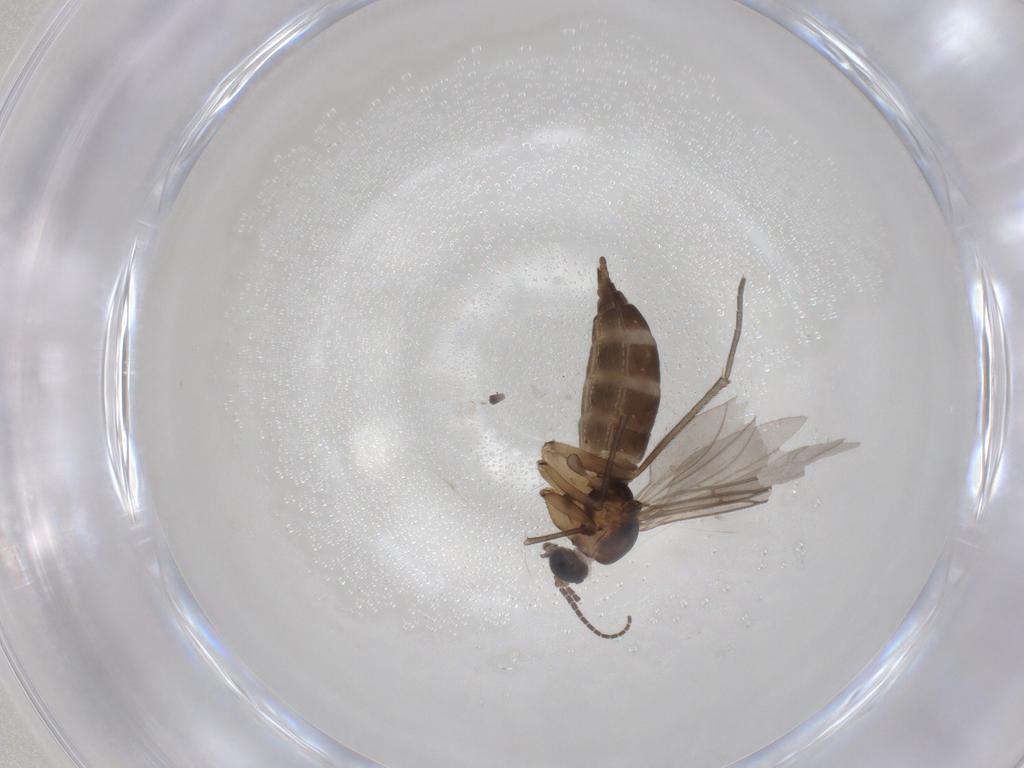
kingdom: Animalia
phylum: Arthropoda
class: Insecta
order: Diptera
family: Sciaridae
